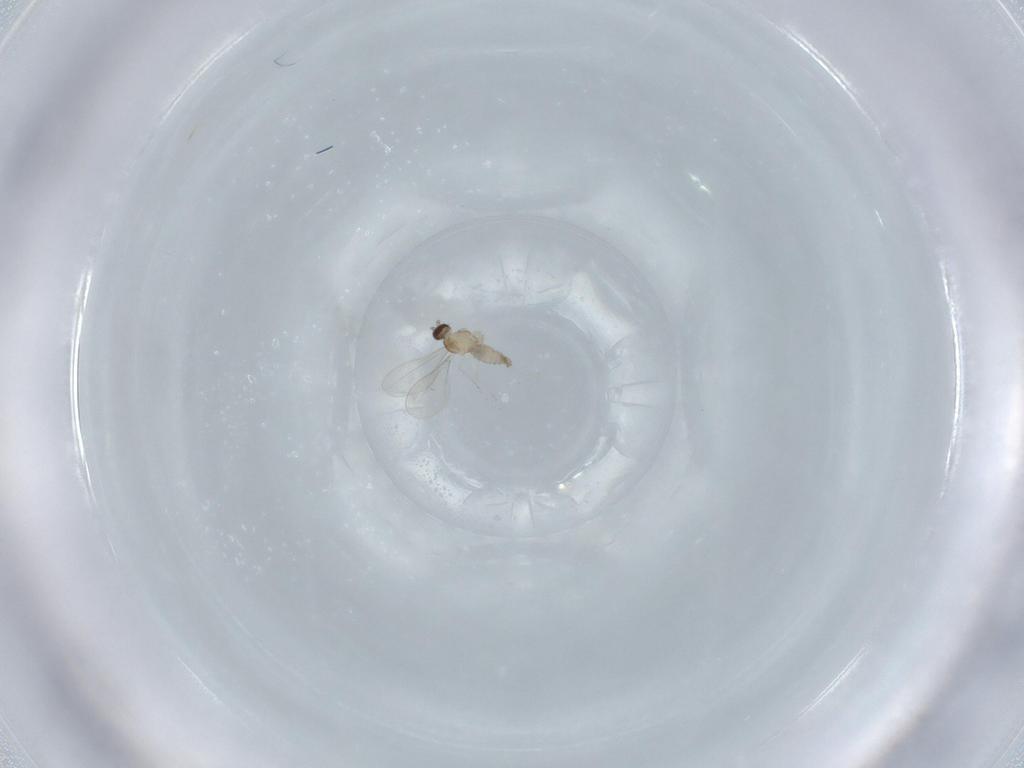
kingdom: Animalia
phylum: Arthropoda
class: Insecta
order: Diptera
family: Cecidomyiidae
